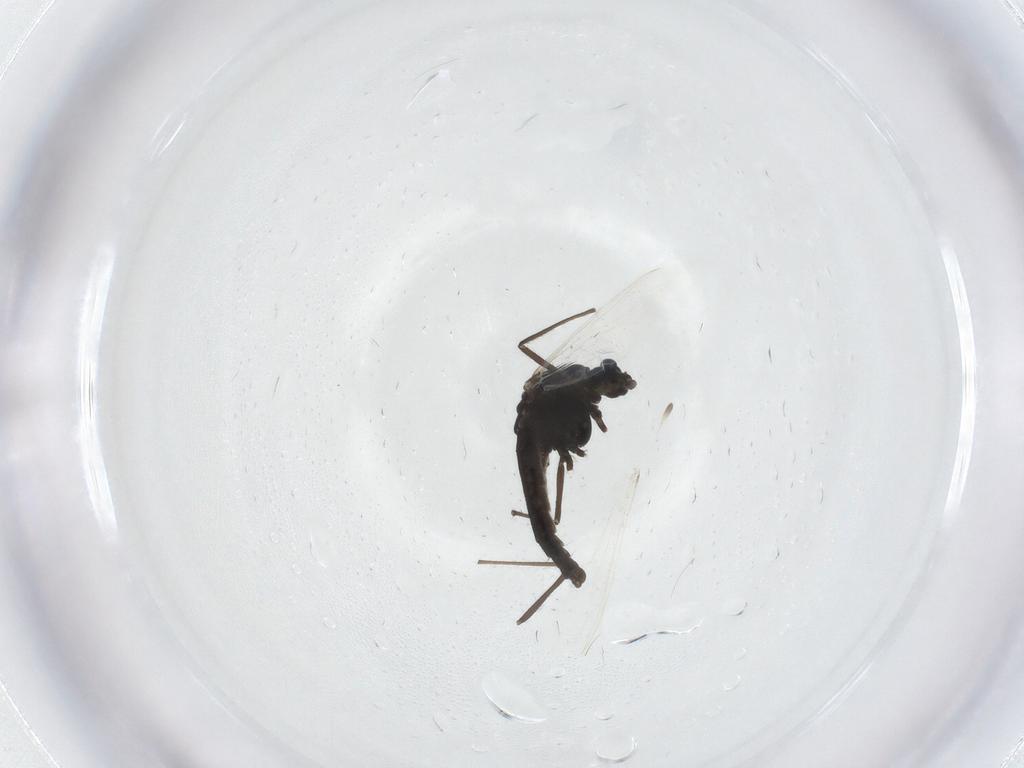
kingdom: Animalia
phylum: Arthropoda
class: Insecta
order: Diptera
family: Chironomidae
